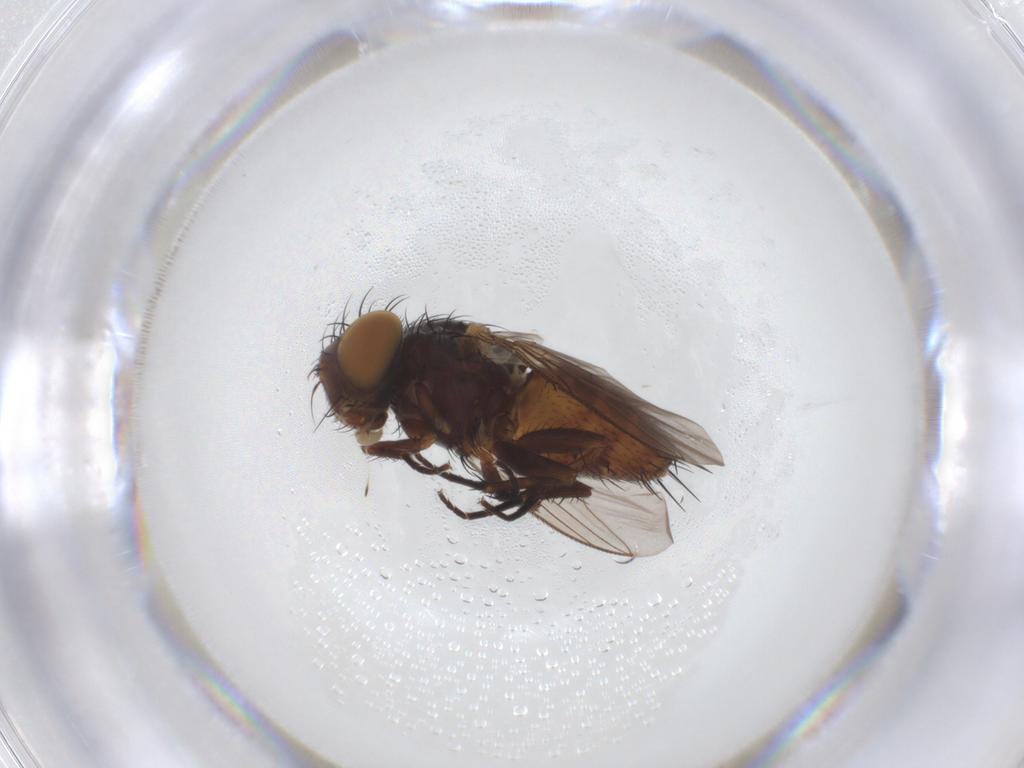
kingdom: Animalia
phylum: Arthropoda
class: Insecta
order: Diptera
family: Sarcophagidae
